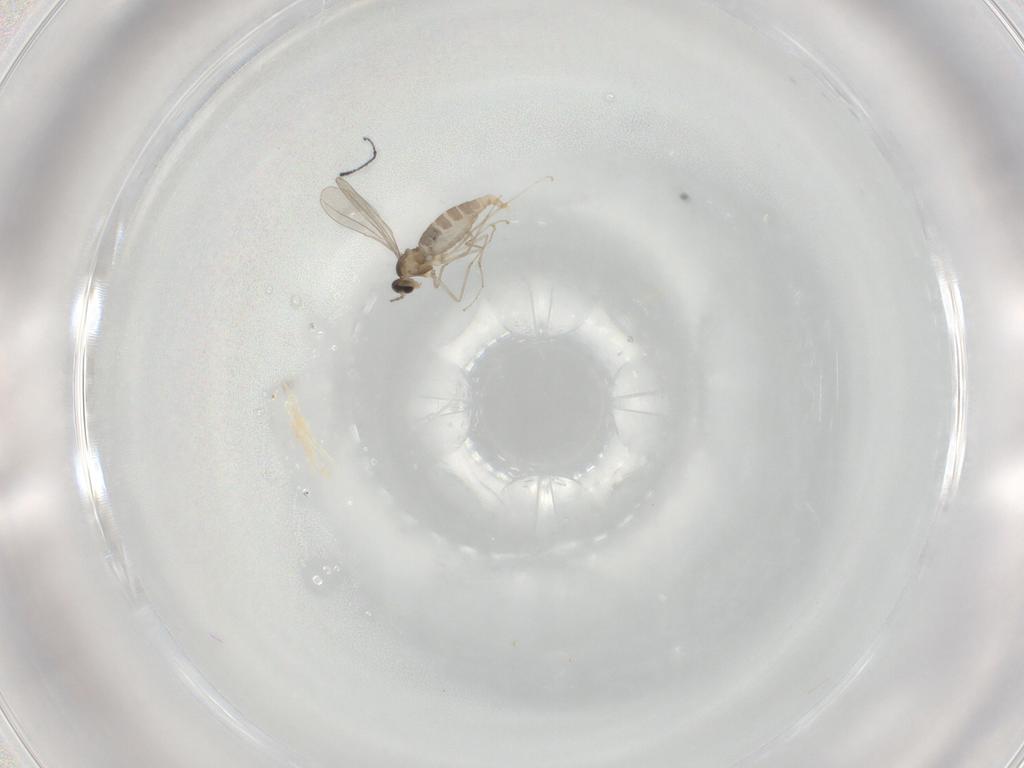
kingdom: Animalia
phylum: Arthropoda
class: Insecta
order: Diptera
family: Ceratopogonidae
